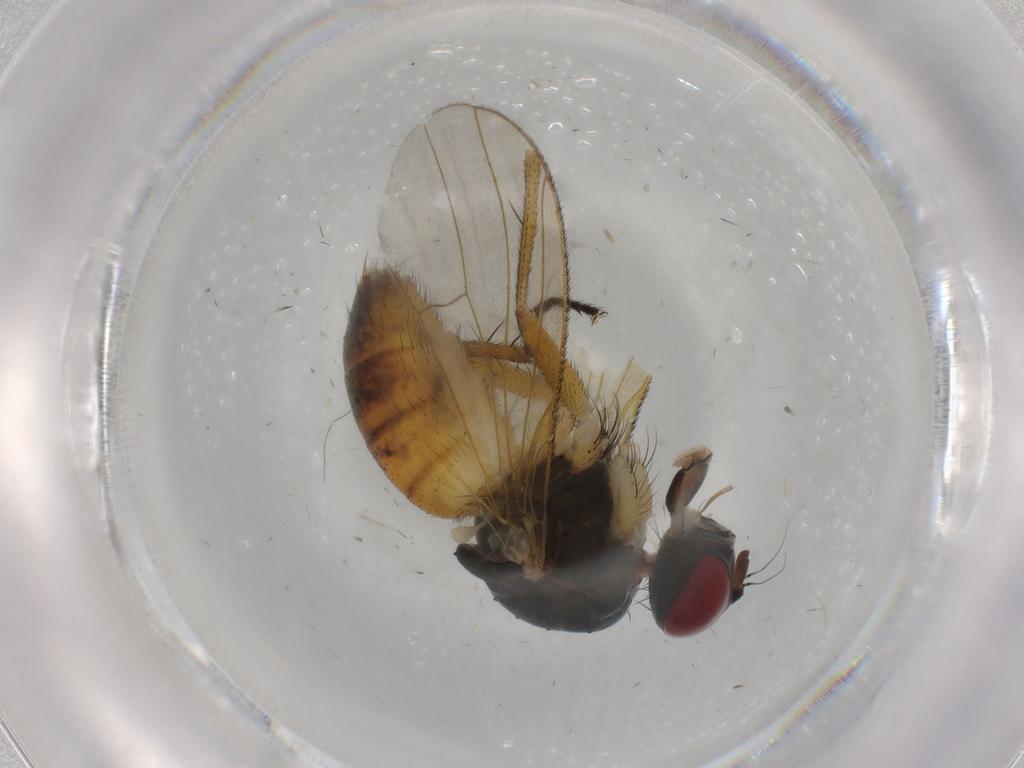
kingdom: Animalia
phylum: Arthropoda
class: Insecta
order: Diptera
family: Muscidae
